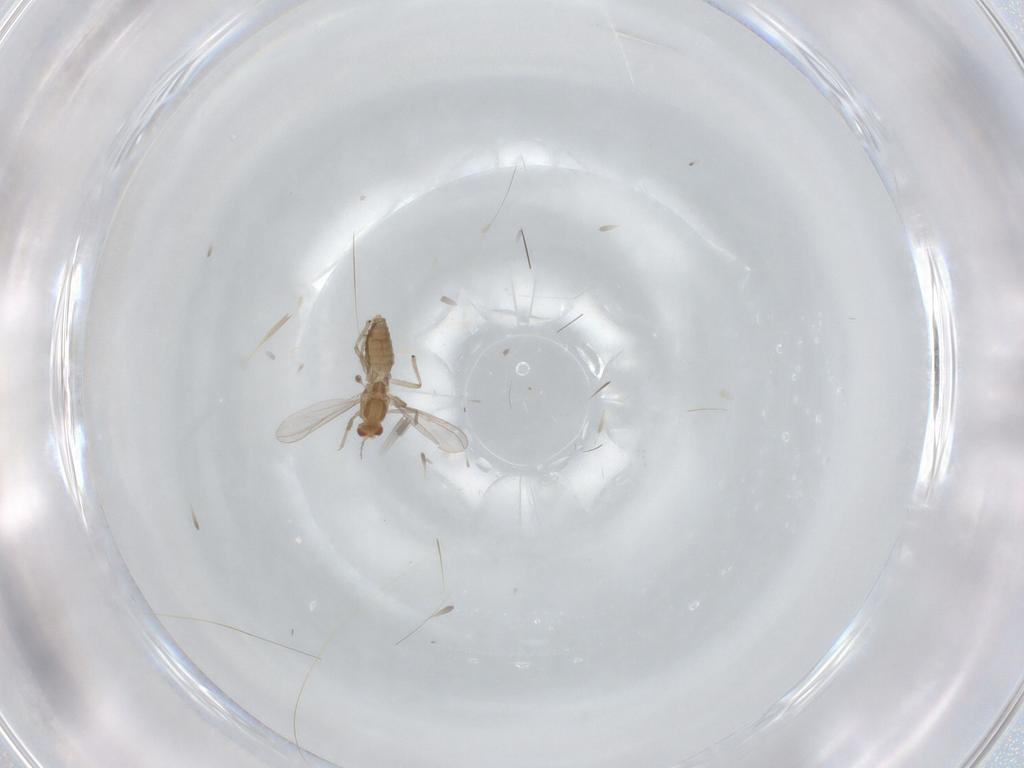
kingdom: Animalia
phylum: Arthropoda
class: Insecta
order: Diptera
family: Chironomidae
